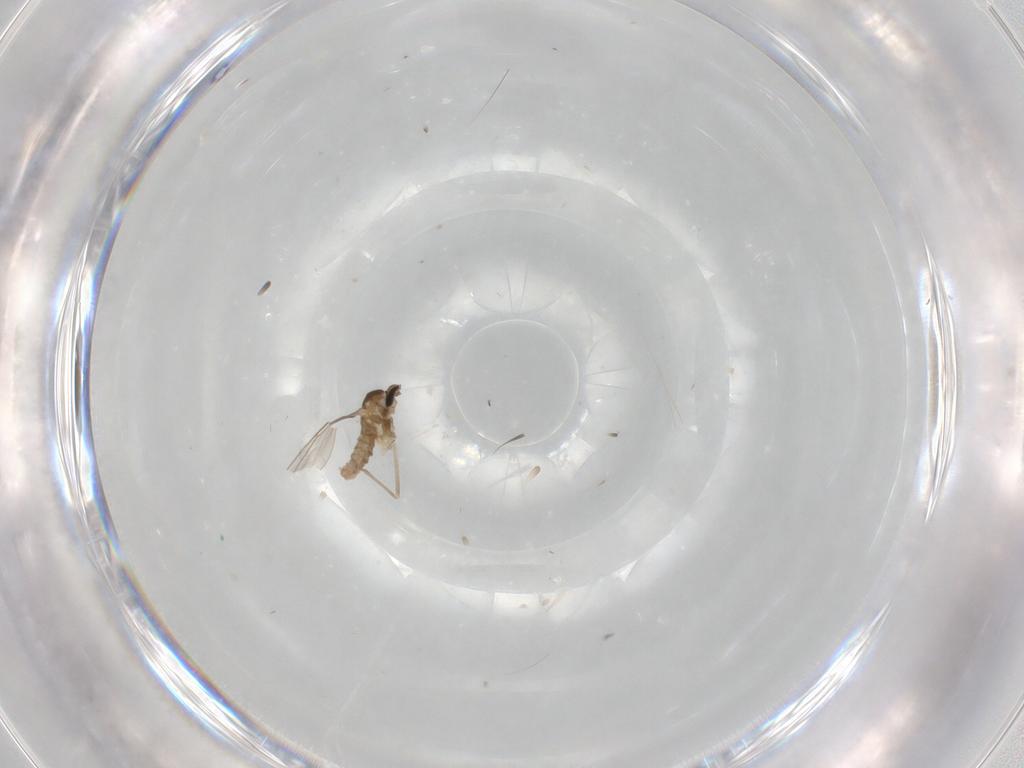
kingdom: Animalia
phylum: Arthropoda
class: Insecta
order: Diptera
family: Cecidomyiidae
